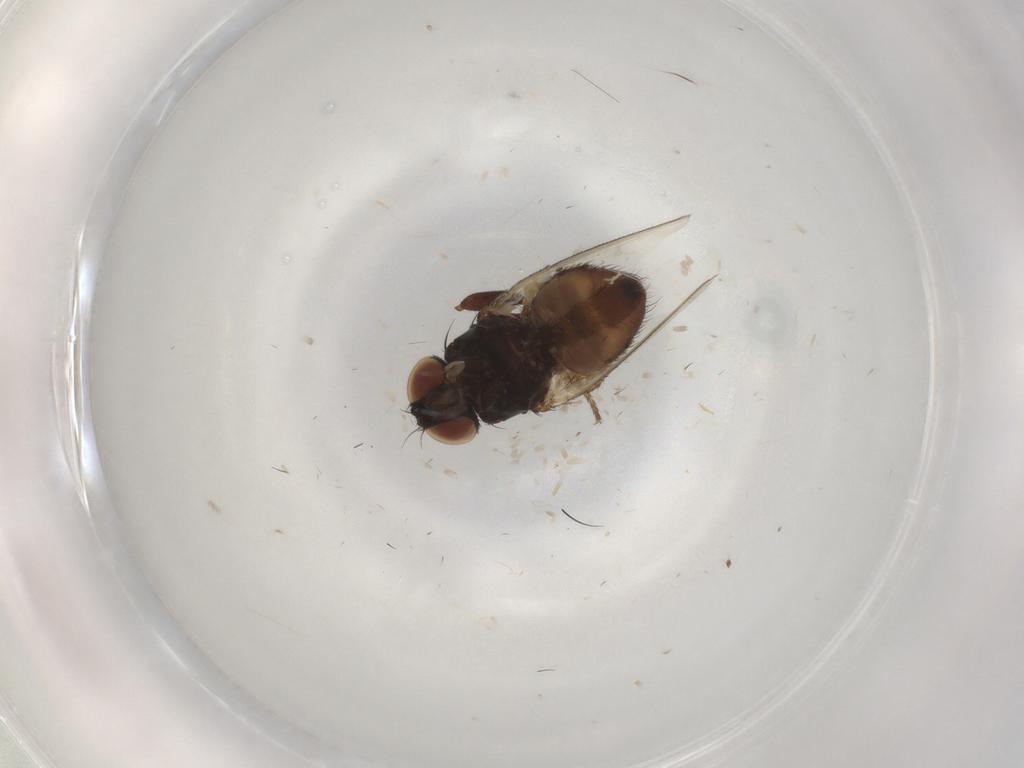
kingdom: Animalia
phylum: Arthropoda
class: Insecta
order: Diptera
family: Milichiidae
